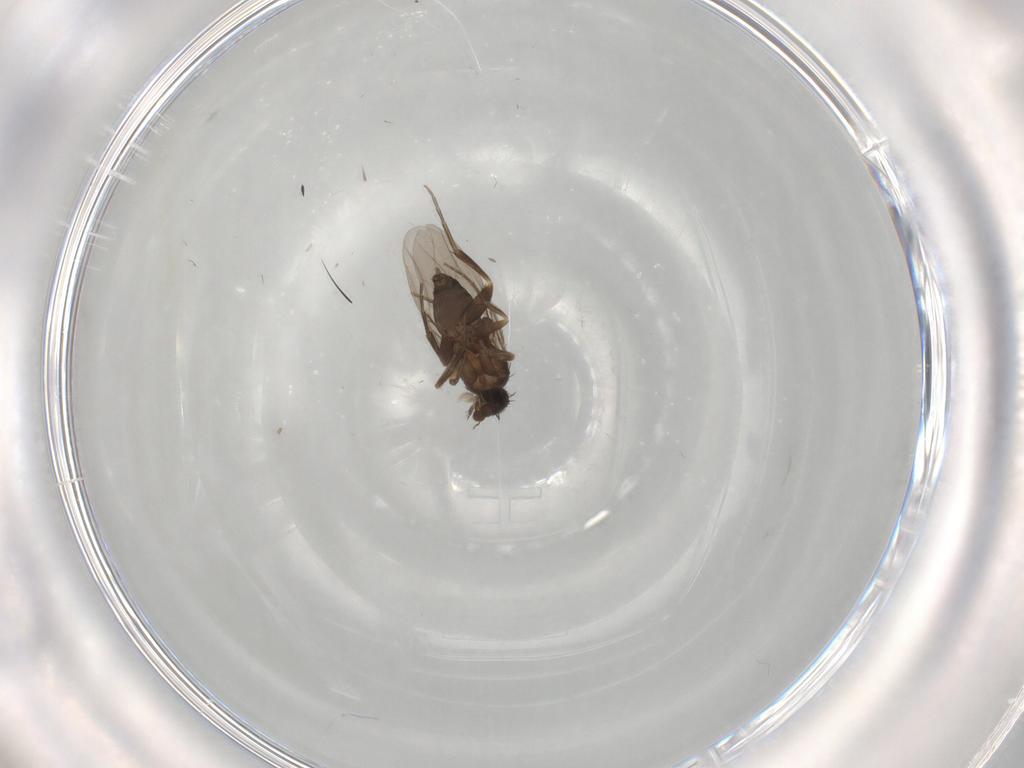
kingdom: Animalia
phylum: Arthropoda
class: Insecta
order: Diptera
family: Phoridae
